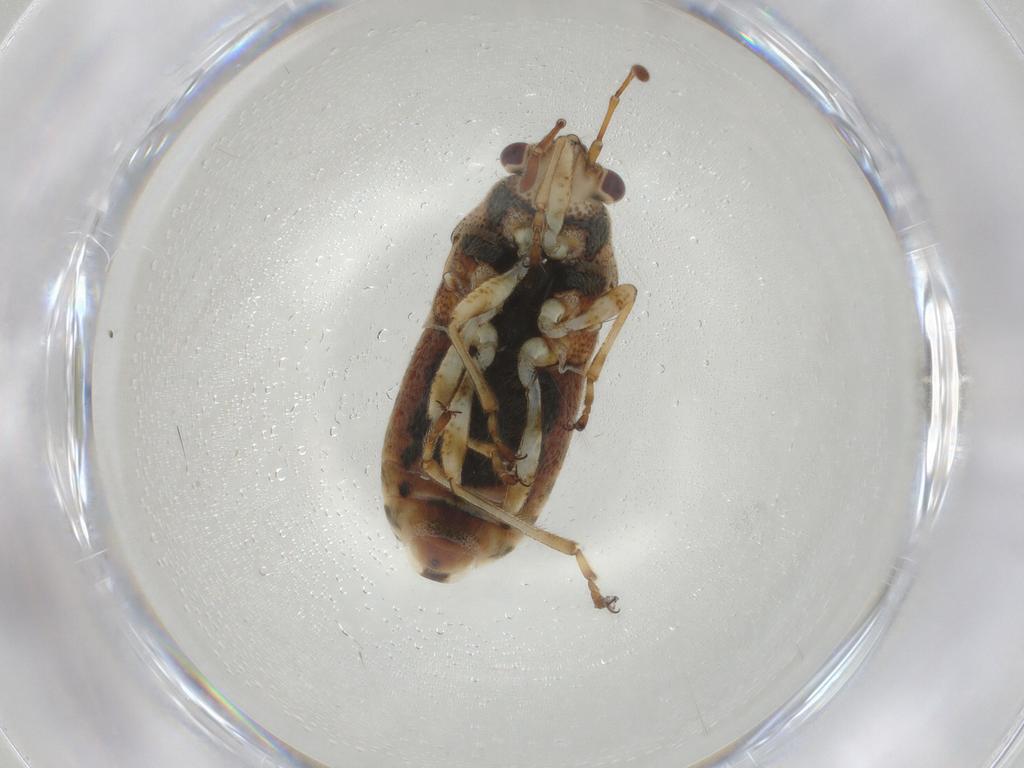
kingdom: Animalia
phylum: Arthropoda
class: Insecta
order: Hemiptera
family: Lygaeidae
